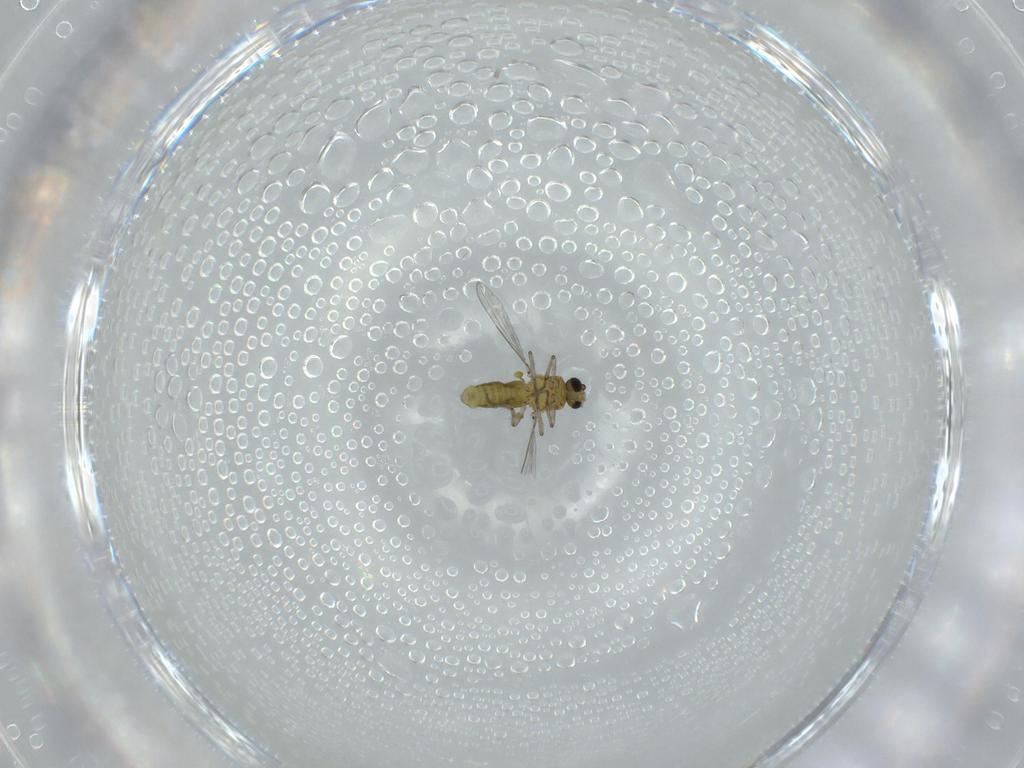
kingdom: Animalia
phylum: Arthropoda
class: Insecta
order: Diptera
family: Ceratopogonidae
